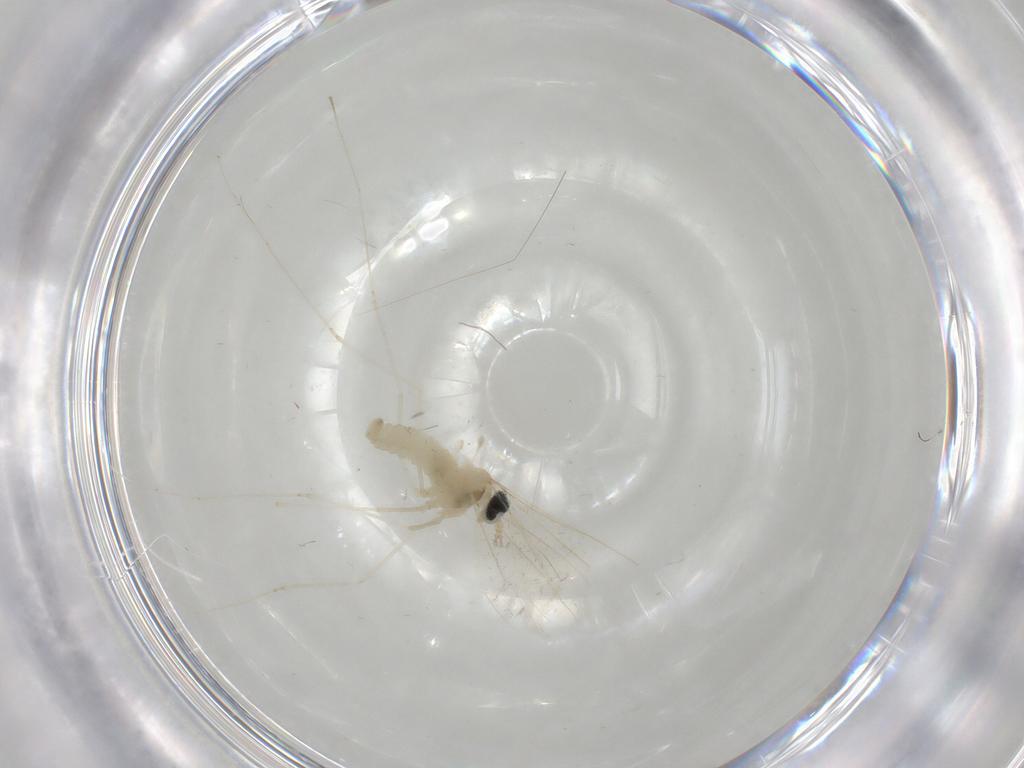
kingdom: Animalia
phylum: Arthropoda
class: Insecta
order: Diptera
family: Cecidomyiidae
